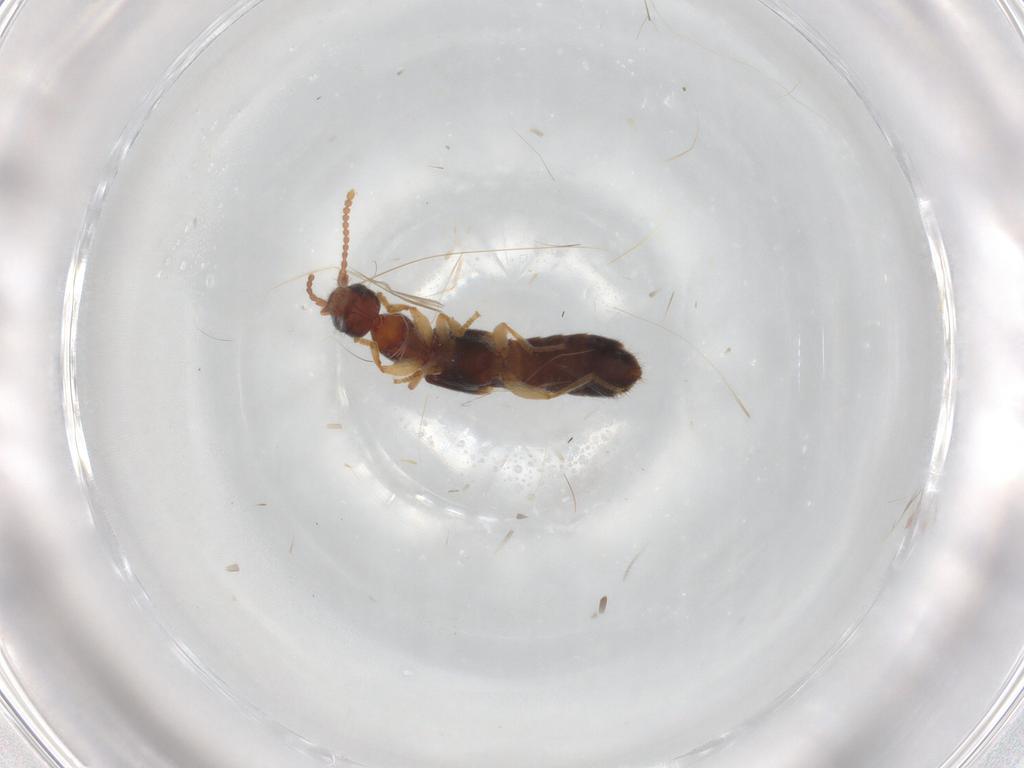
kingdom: Animalia
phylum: Arthropoda
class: Insecta
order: Coleoptera
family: Staphylinidae
